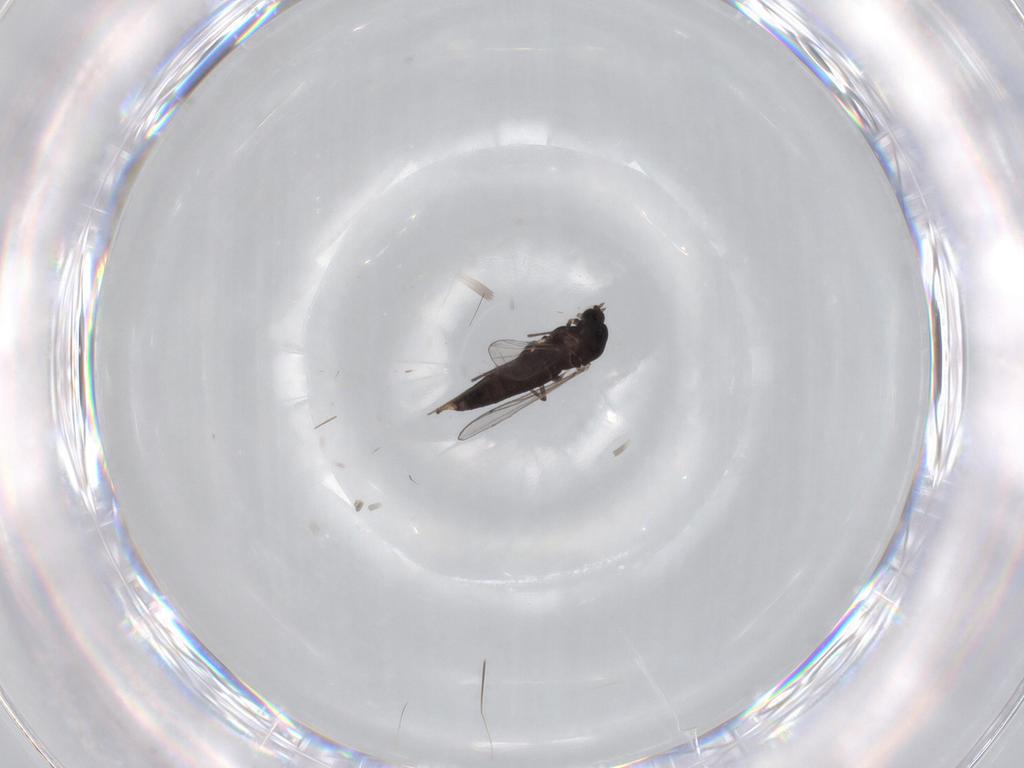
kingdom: Animalia
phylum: Arthropoda
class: Insecta
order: Diptera
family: Chironomidae
